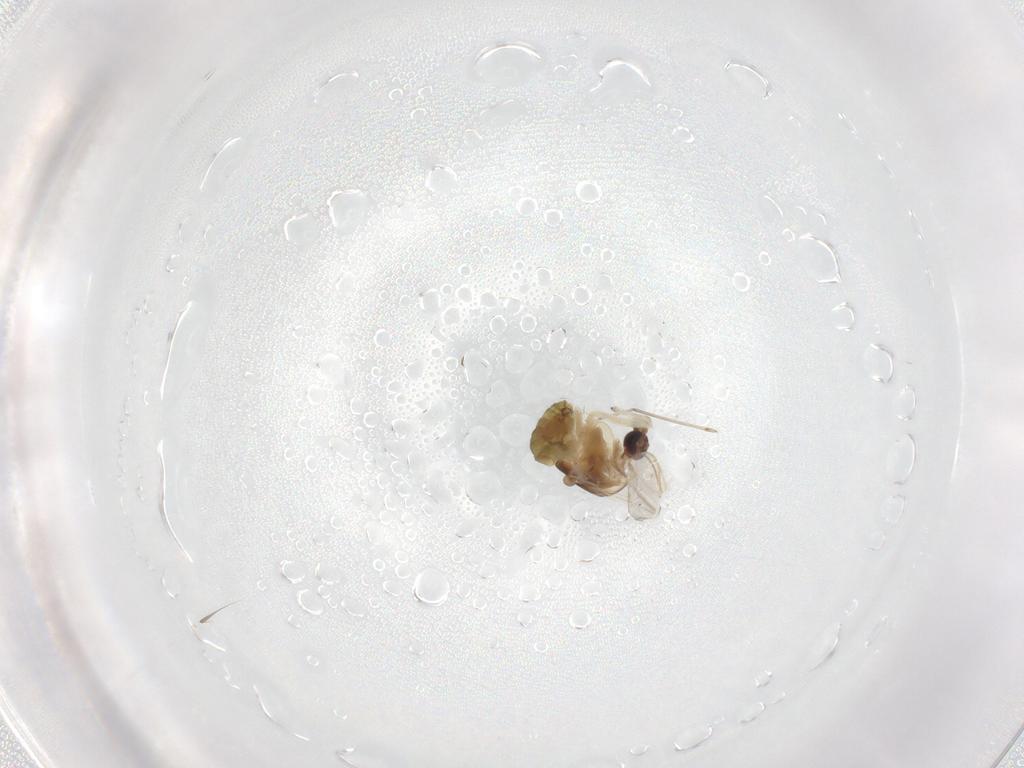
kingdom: Animalia
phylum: Arthropoda
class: Insecta
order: Diptera
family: Chironomidae
